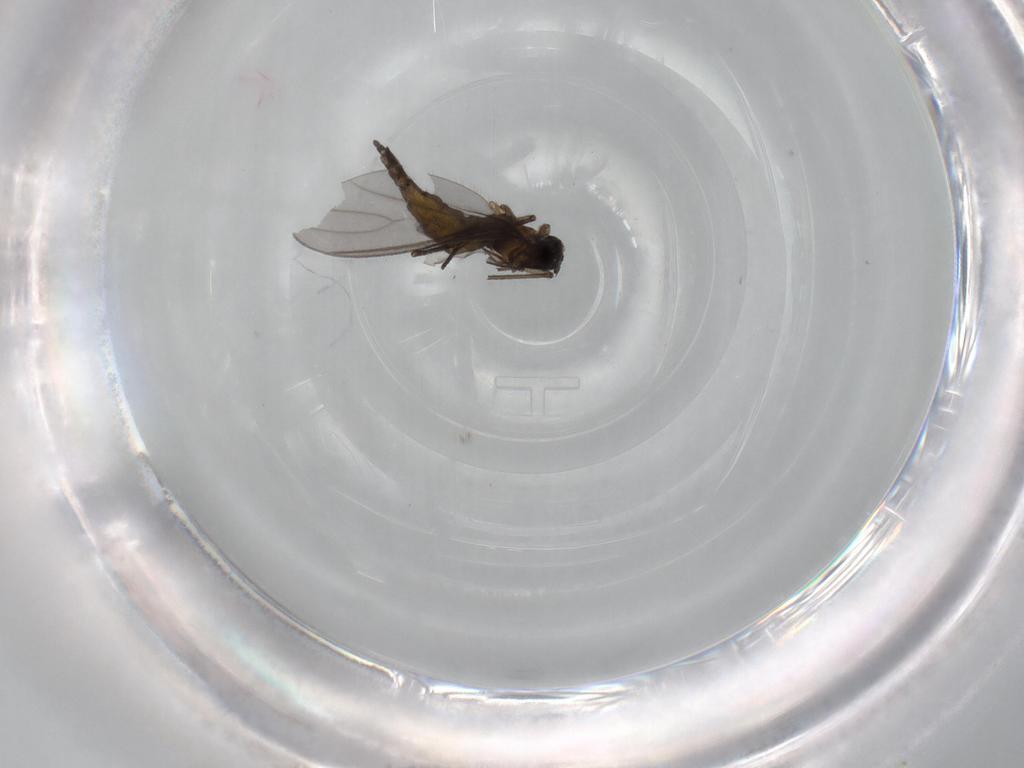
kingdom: Animalia
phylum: Arthropoda
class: Insecta
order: Diptera
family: Sciaridae
